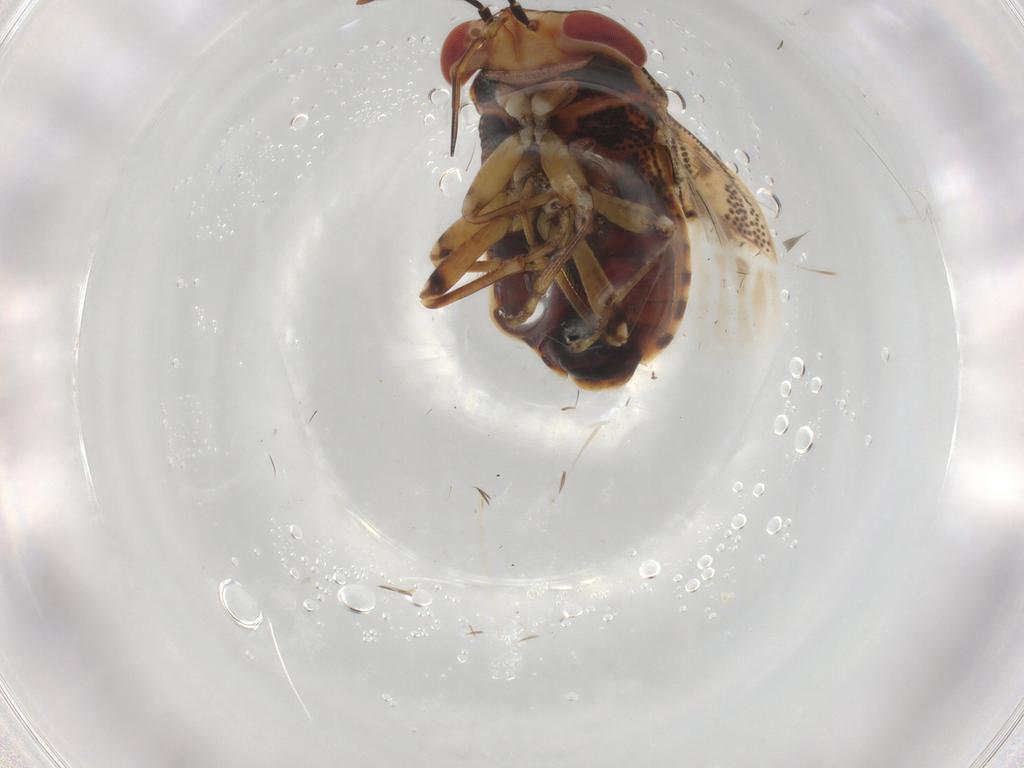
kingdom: Animalia
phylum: Arthropoda
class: Insecta
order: Hemiptera
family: Geocoridae
